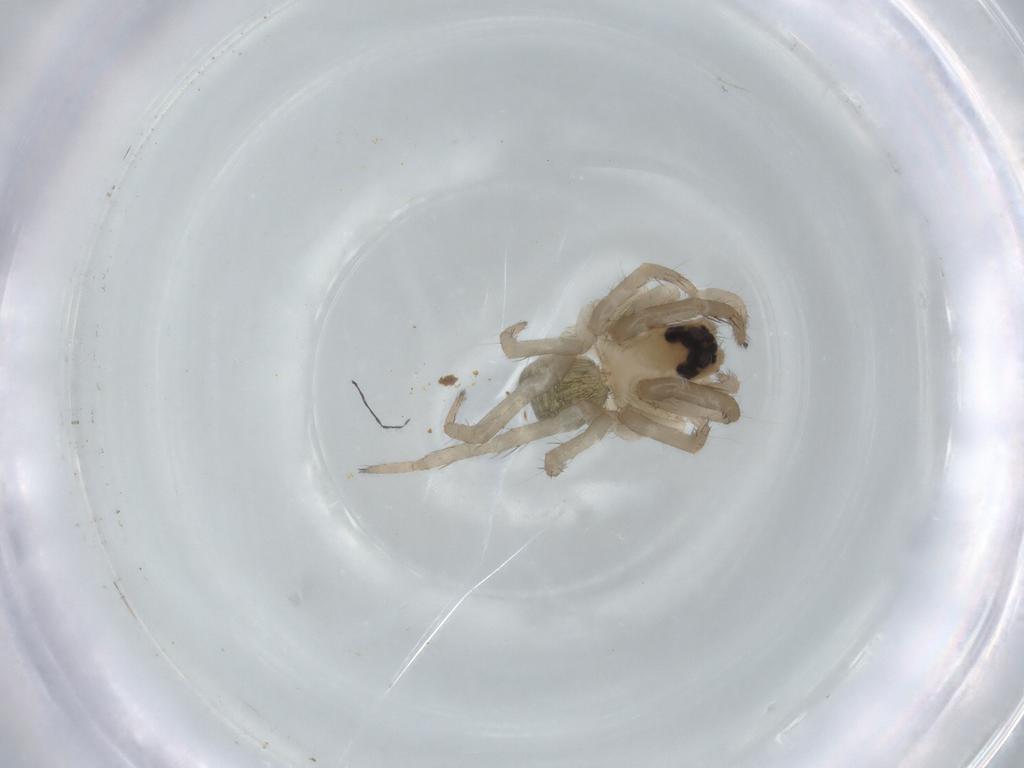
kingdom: Animalia
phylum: Arthropoda
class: Arachnida
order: Araneae
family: Lycosidae
